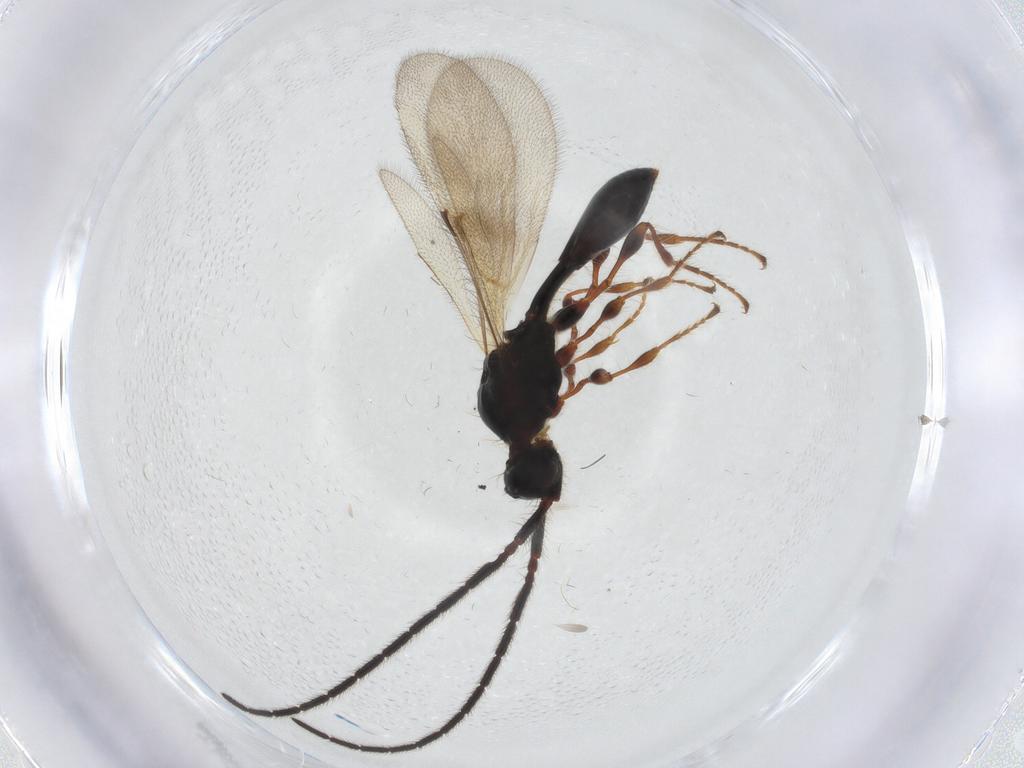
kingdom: Animalia
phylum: Arthropoda
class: Insecta
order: Hymenoptera
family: Diapriidae
